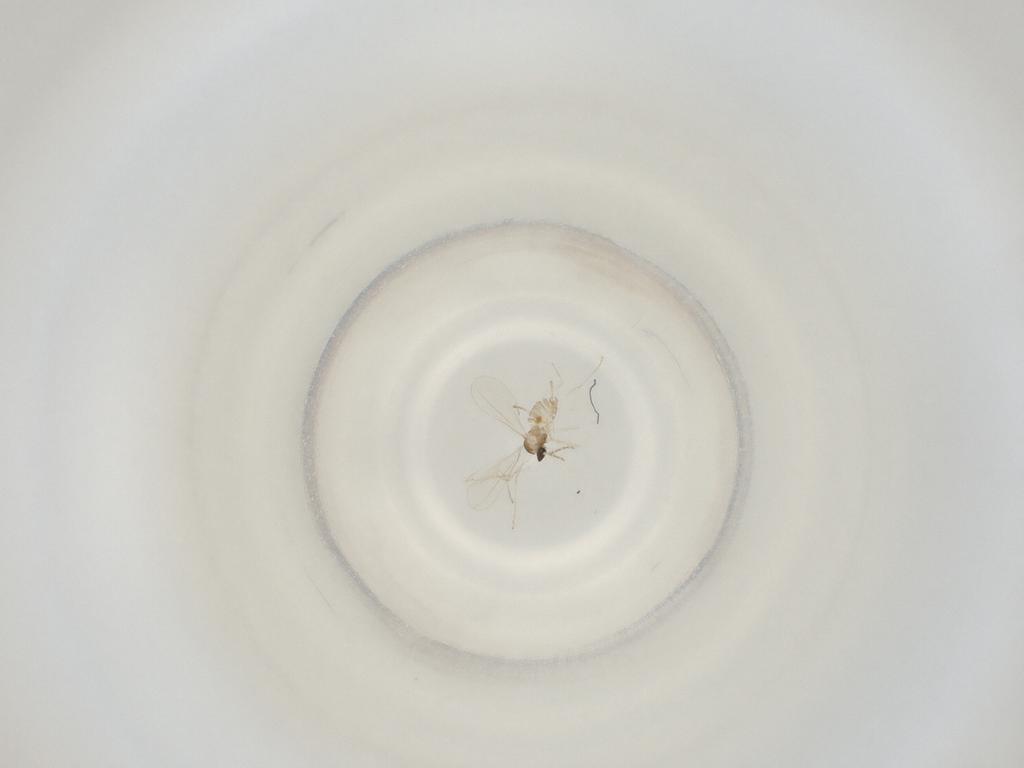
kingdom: Animalia
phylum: Arthropoda
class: Insecta
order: Diptera
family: Cecidomyiidae
